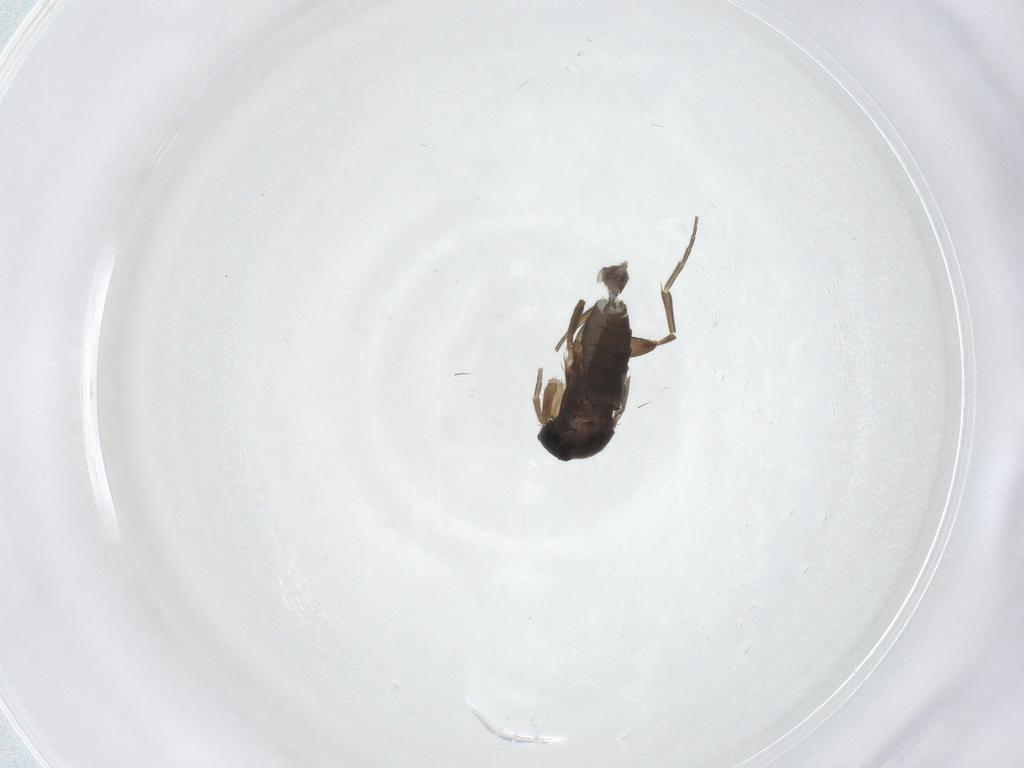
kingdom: Animalia
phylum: Arthropoda
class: Insecta
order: Diptera
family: Phoridae
